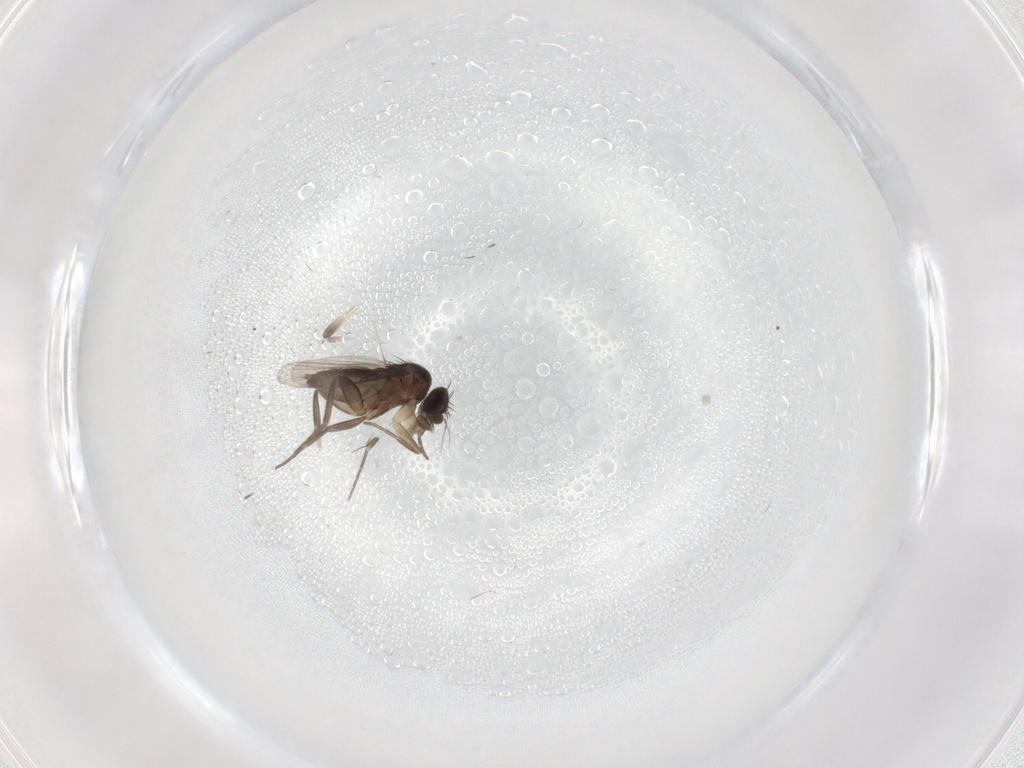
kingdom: Animalia
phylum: Arthropoda
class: Insecta
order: Diptera
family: Phoridae
